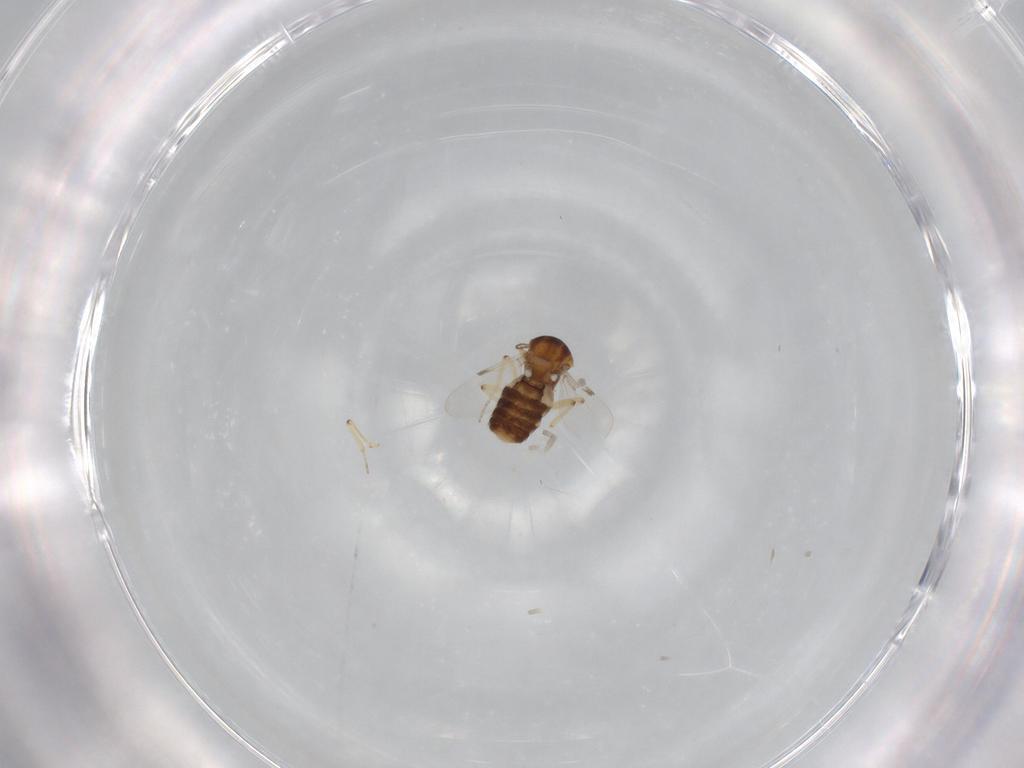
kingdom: Animalia
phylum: Arthropoda
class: Insecta
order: Diptera
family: Ceratopogonidae
